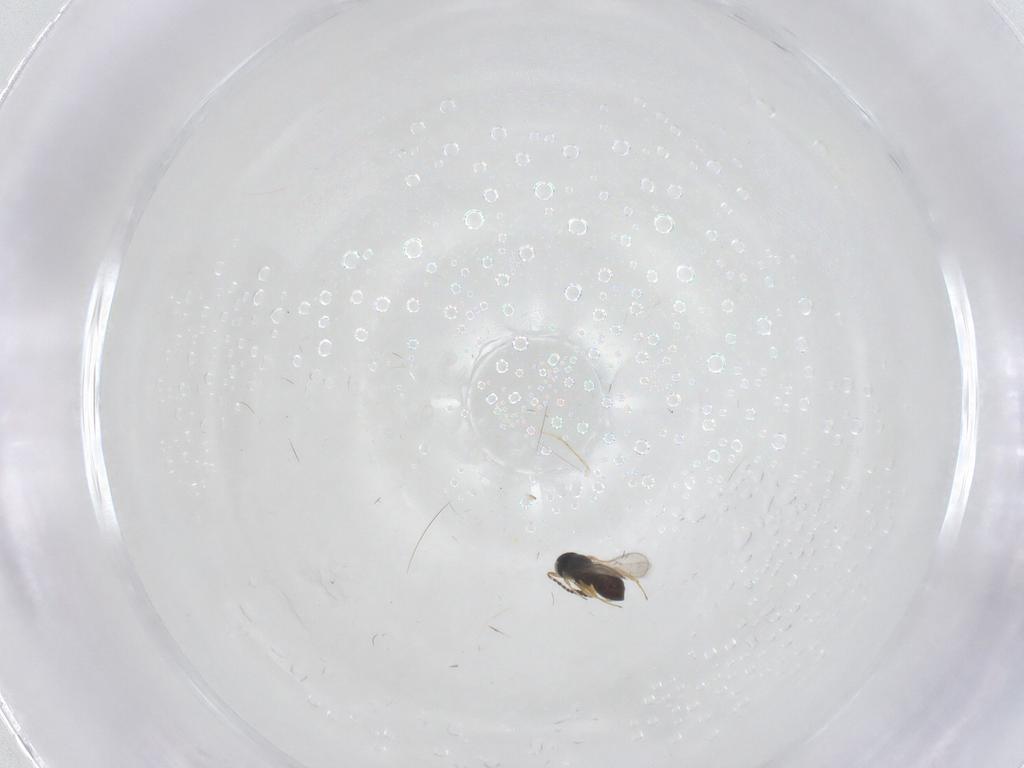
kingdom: Animalia
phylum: Arthropoda
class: Insecta
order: Hymenoptera
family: Scelionidae
